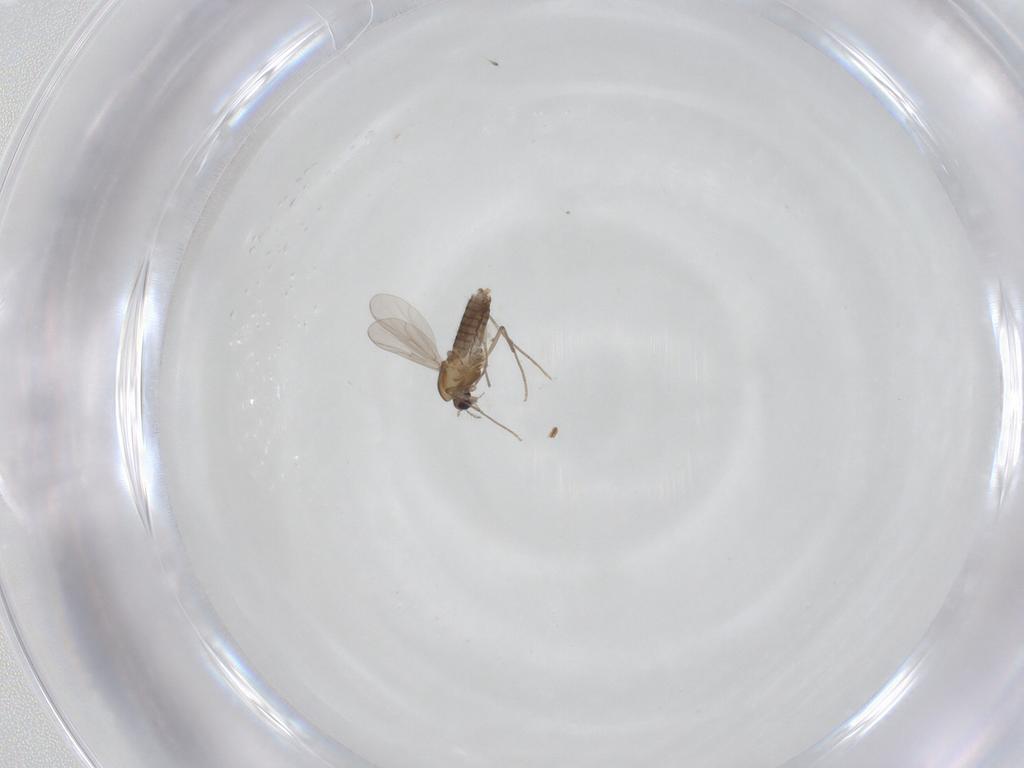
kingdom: Animalia
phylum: Arthropoda
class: Insecta
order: Diptera
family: Chironomidae
